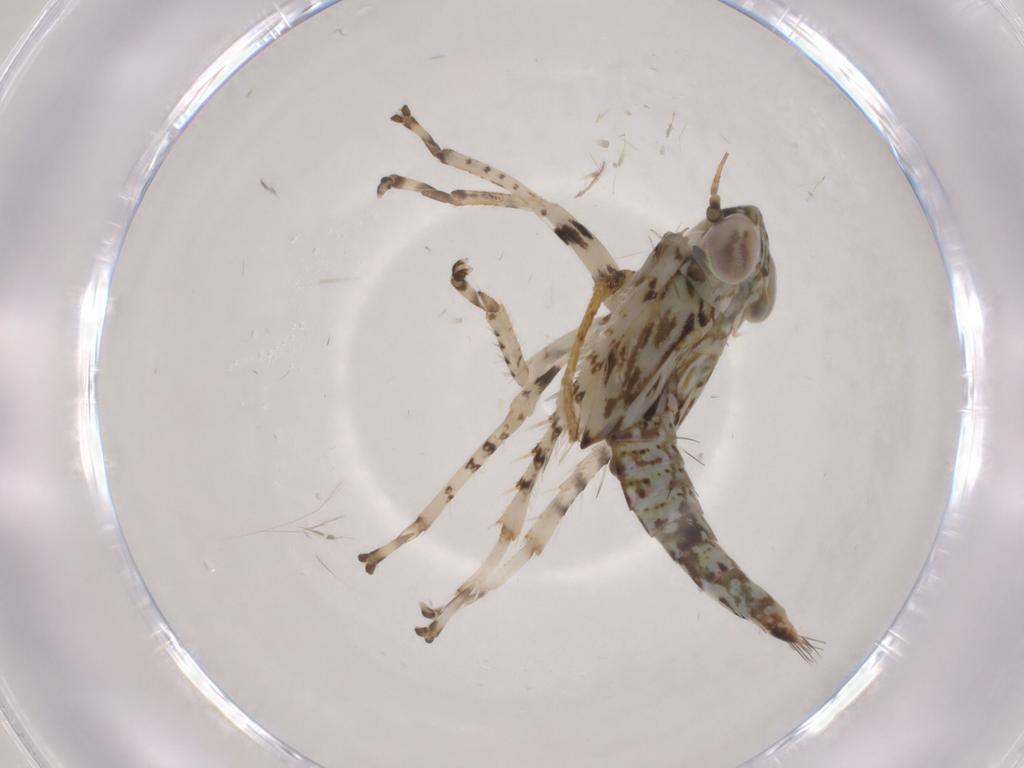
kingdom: Animalia
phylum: Arthropoda
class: Insecta
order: Hemiptera
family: Cicadellidae
